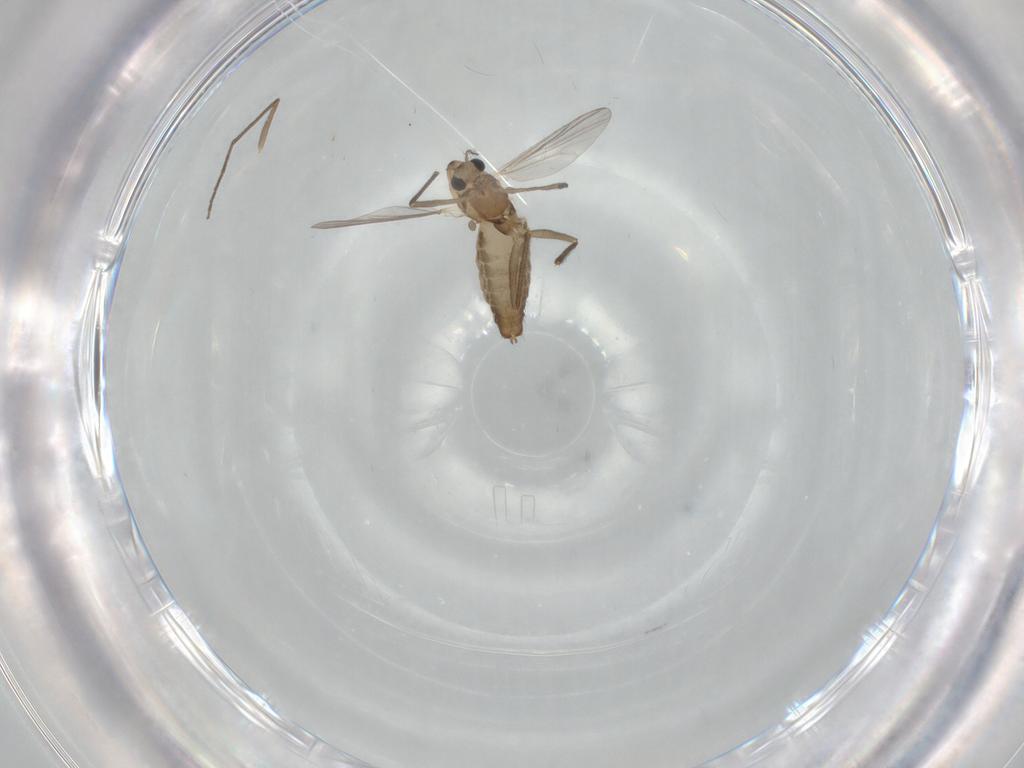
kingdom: Animalia
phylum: Arthropoda
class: Insecta
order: Diptera
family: Chironomidae
